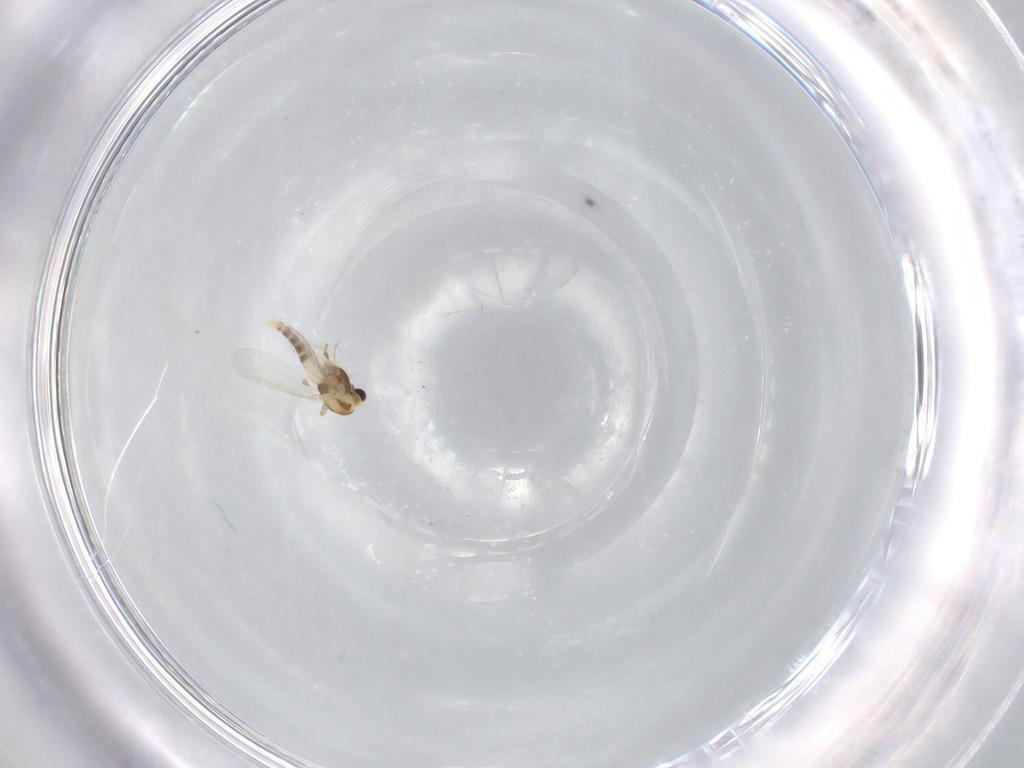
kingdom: Animalia
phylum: Arthropoda
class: Insecta
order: Diptera
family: Chironomidae
